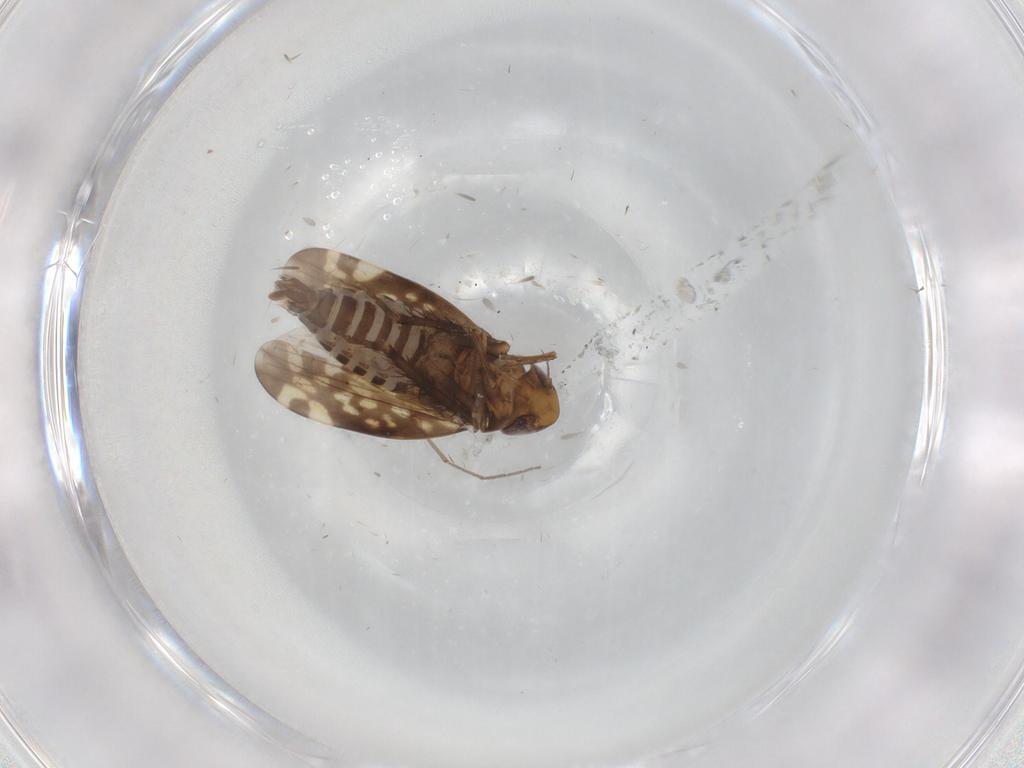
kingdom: Animalia
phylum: Arthropoda
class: Insecta
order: Hemiptera
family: Cicadellidae
